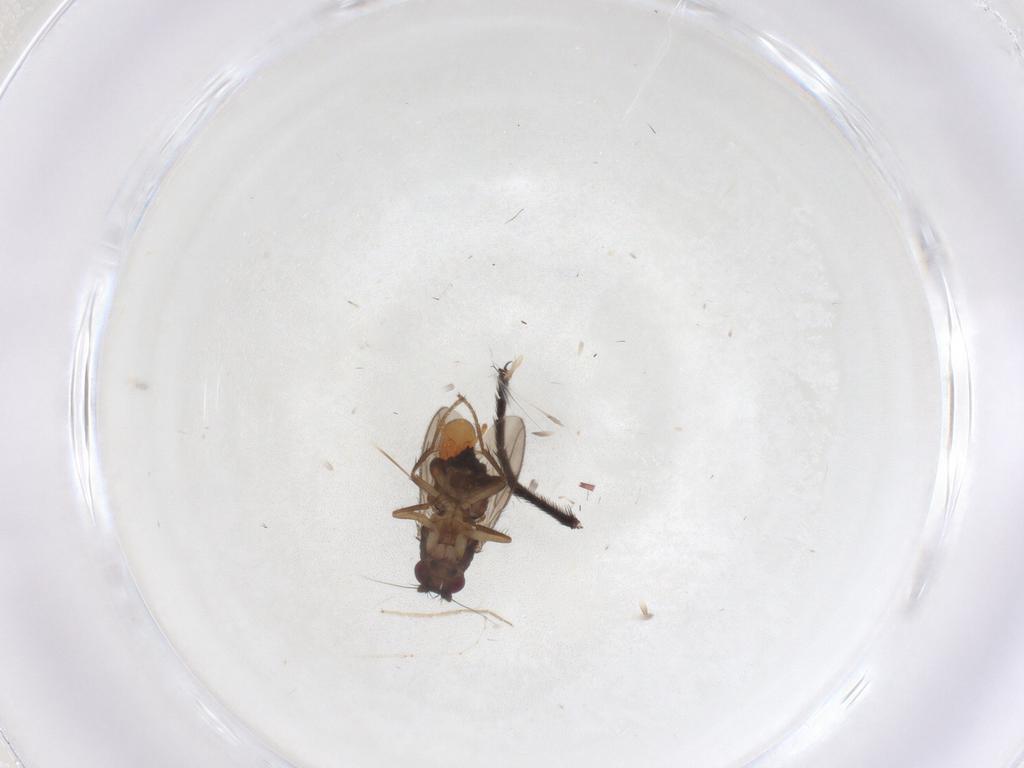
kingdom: Animalia
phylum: Arthropoda
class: Insecta
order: Diptera
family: Sphaeroceridae
